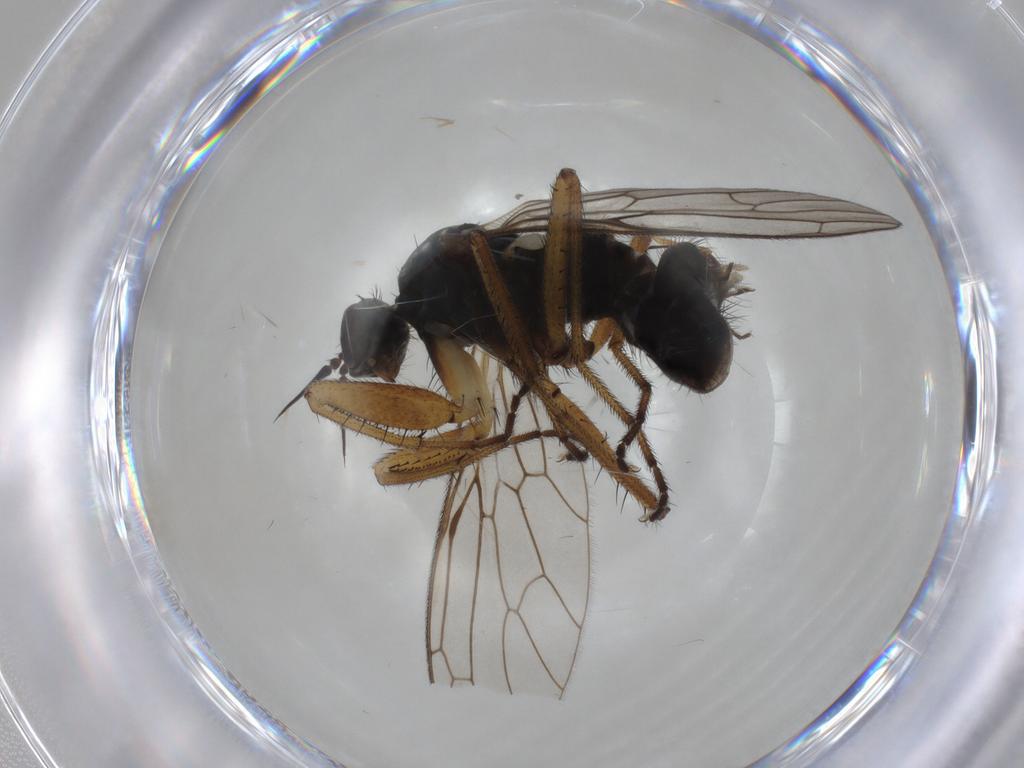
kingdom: Animalia
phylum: Arthropoda
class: Insecta
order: Diptera
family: Empididae
